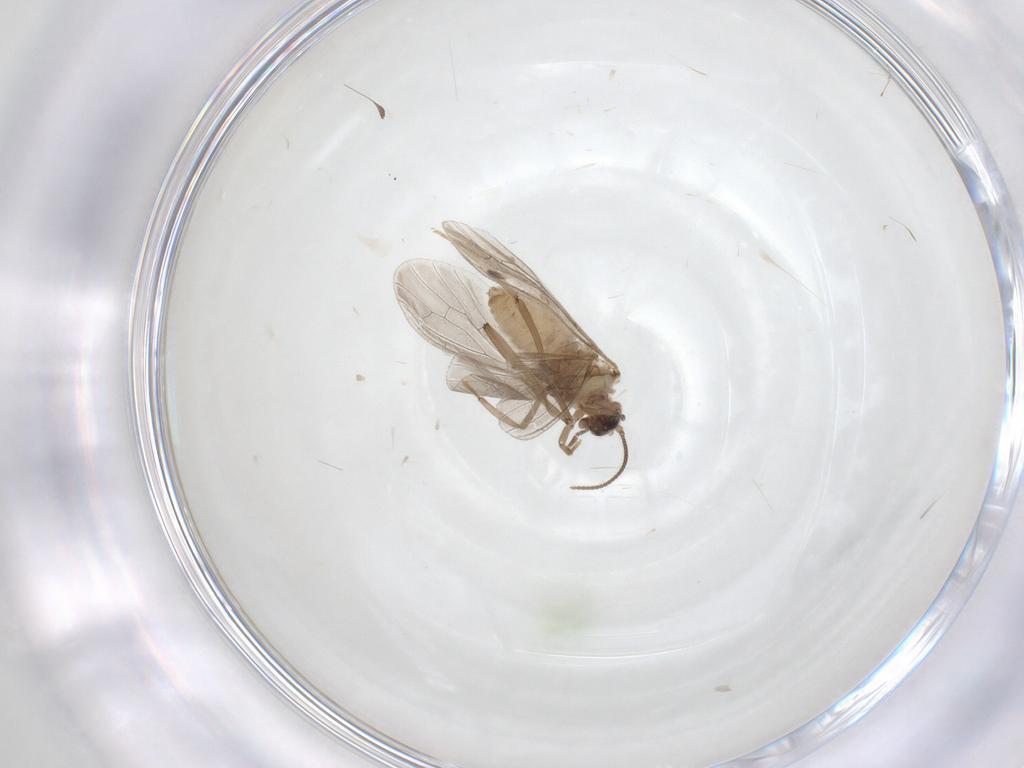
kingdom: Animalia
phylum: Arthropoda
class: Insecta
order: Neuroptera
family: Coniopterygidae
